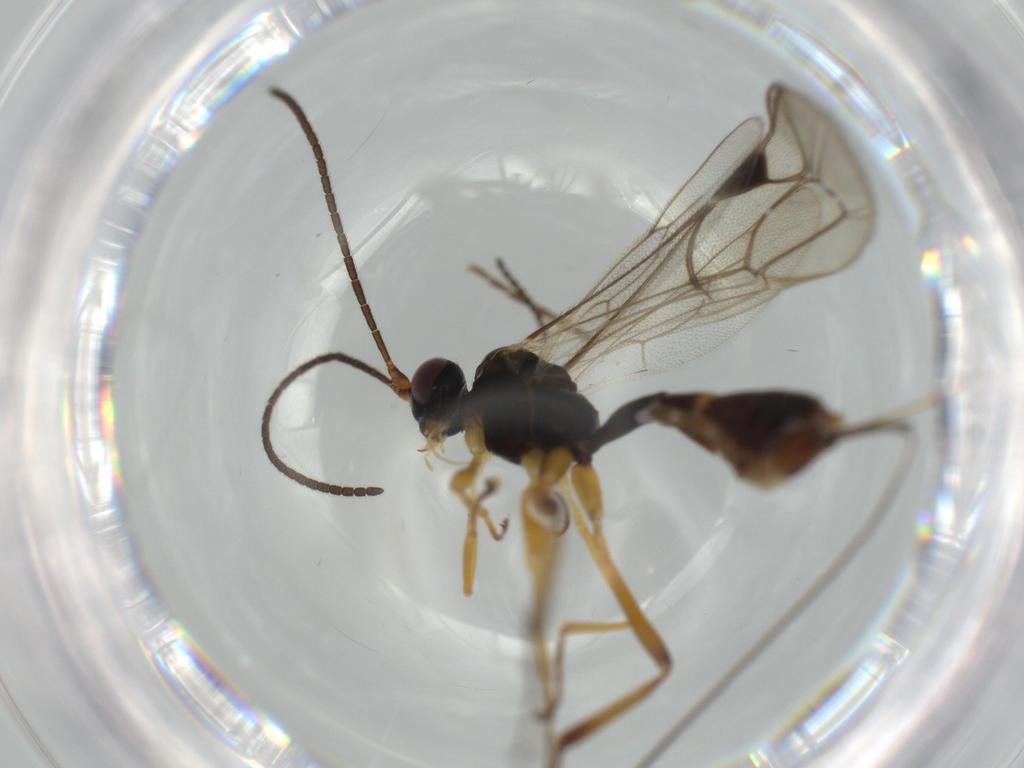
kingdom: Animalia
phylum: Arthropoda
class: Insecta
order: Hymenoptera
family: Ichneumonidae
